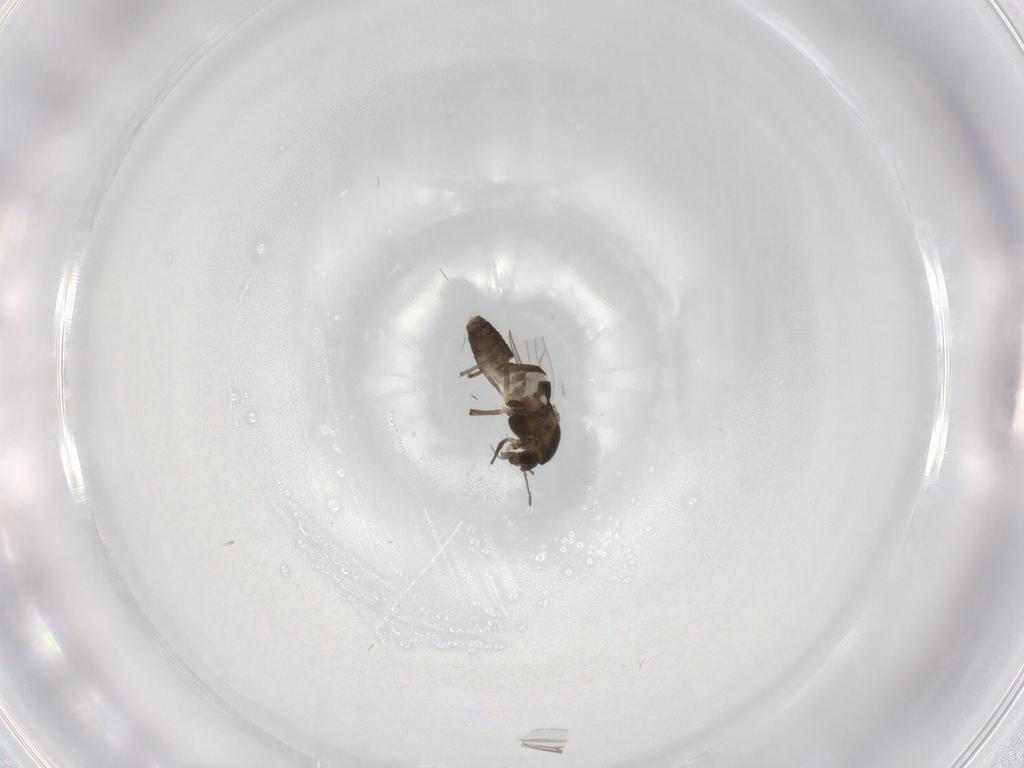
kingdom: Animalia
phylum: Arthropoda
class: Insecta
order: Diptera
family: Chironomidae
